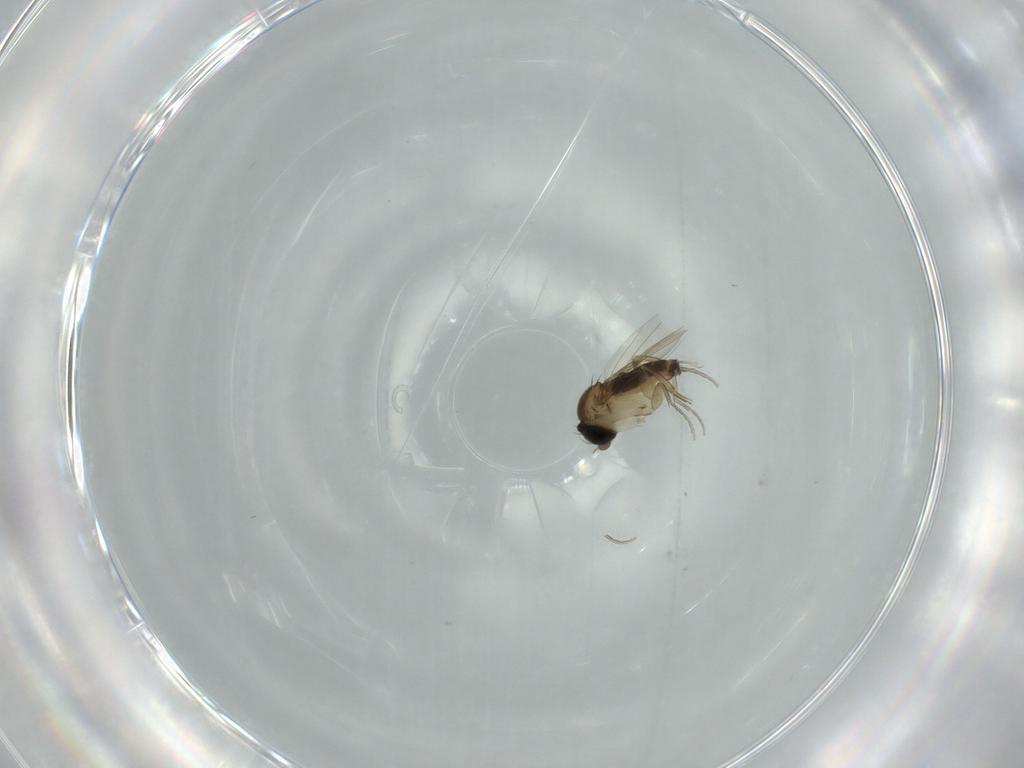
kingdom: Animalia
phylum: Arthropoda
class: Insecta
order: Diptera
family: Phoridae
